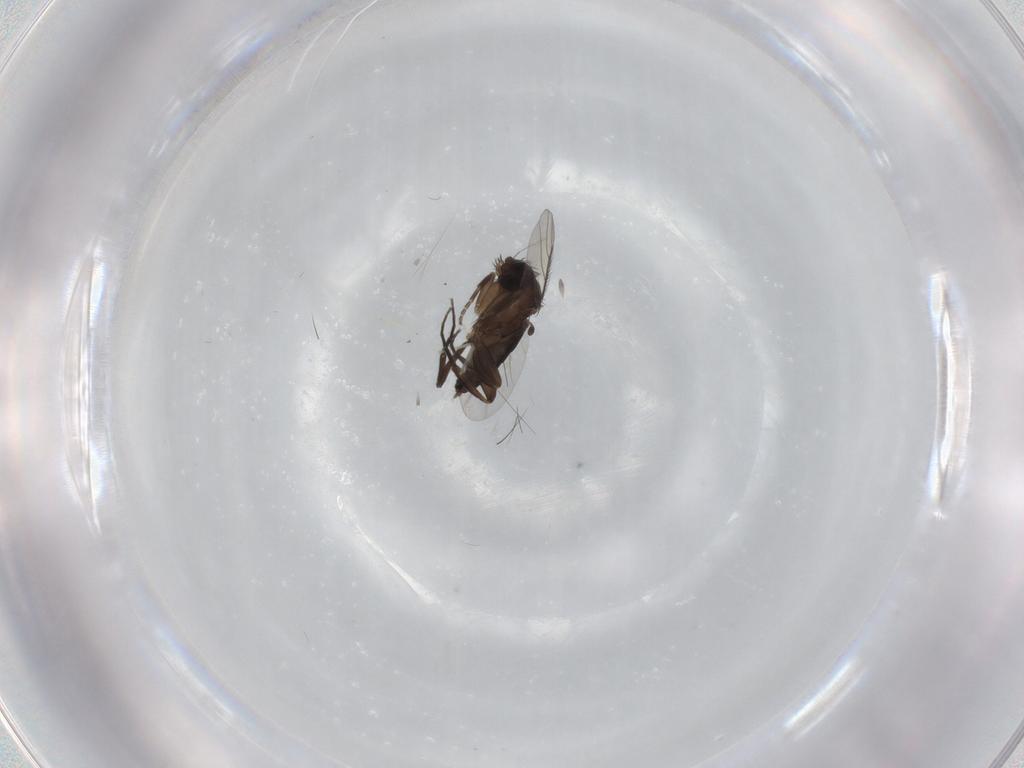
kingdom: Animalia
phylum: Arthropoda
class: Insecta
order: Diptera
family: Phoridae
